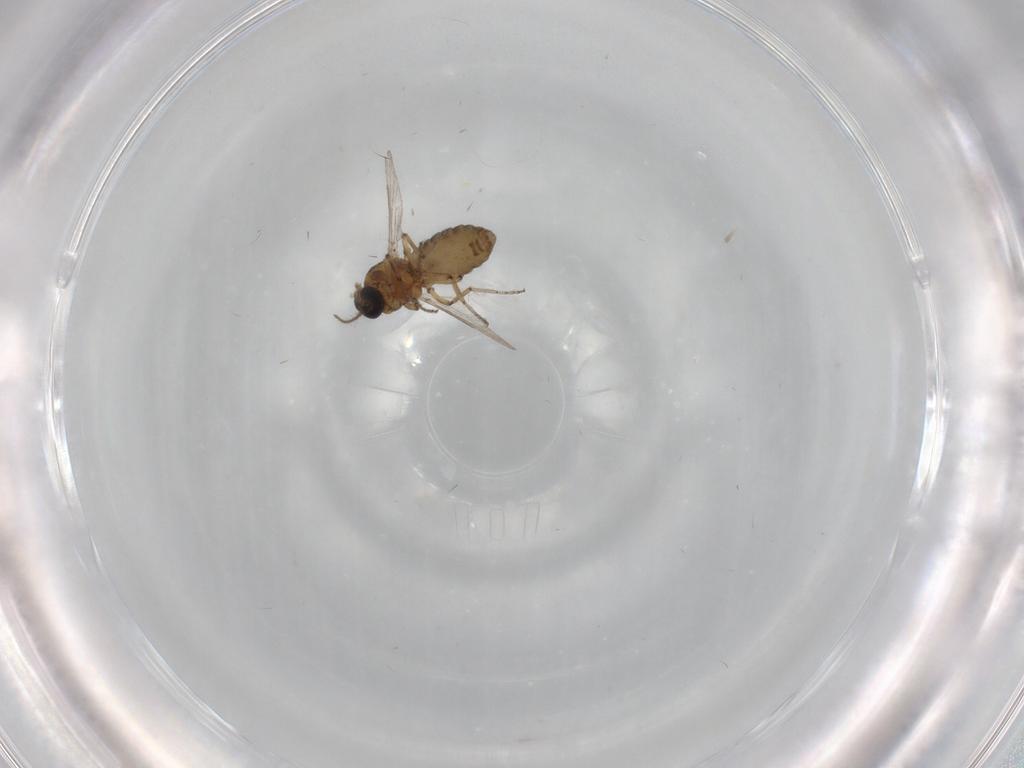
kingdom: Animalia
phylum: Arthropoda
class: Insecta
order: Diptera
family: Ceratopogonidae
